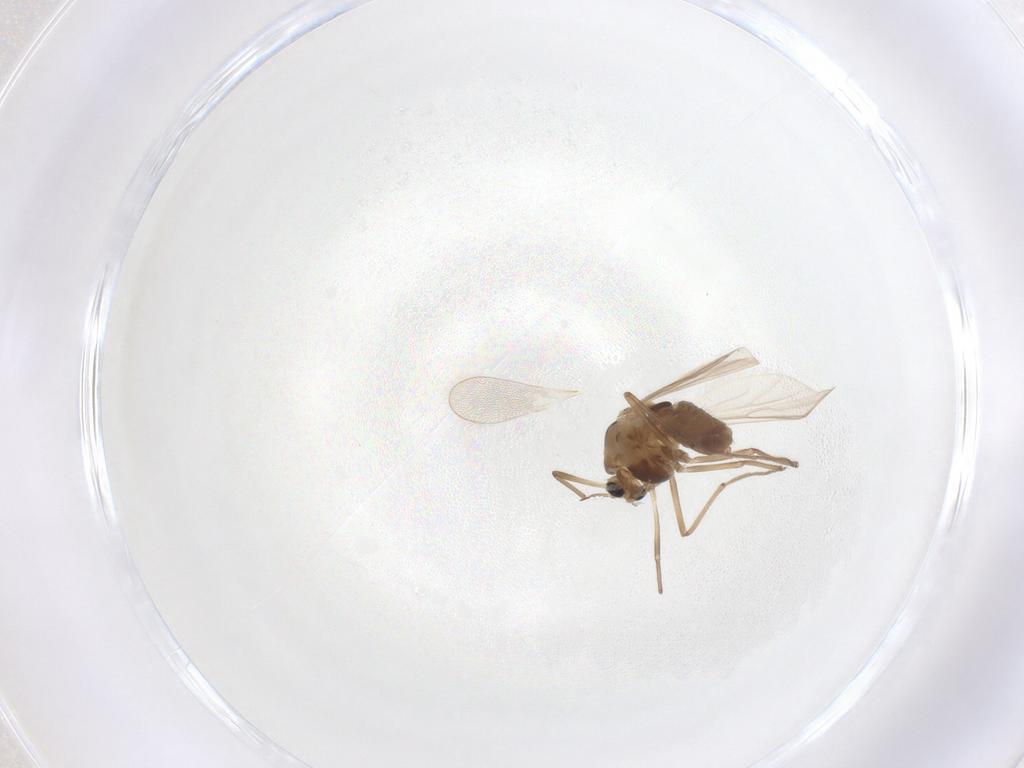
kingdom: Animalia
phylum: Arthropoda
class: Insecta
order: Diptera
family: Chironomidae
